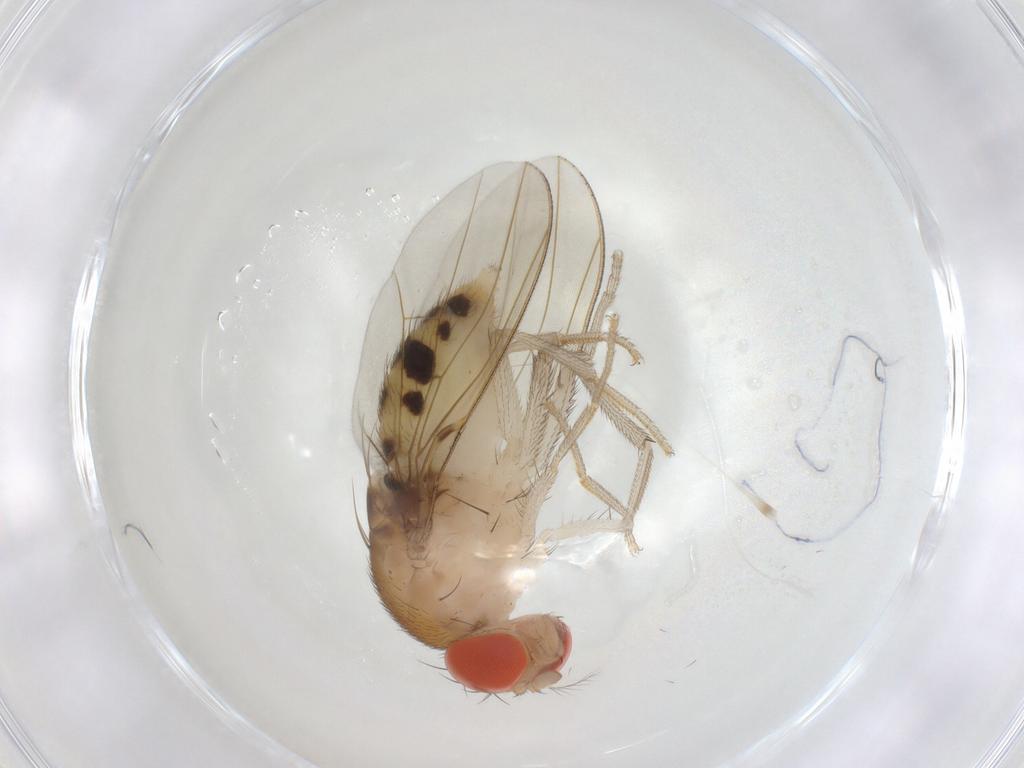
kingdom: Animalia
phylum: Arthropoda
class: Insecta
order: Diptera
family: Drosophilidae
